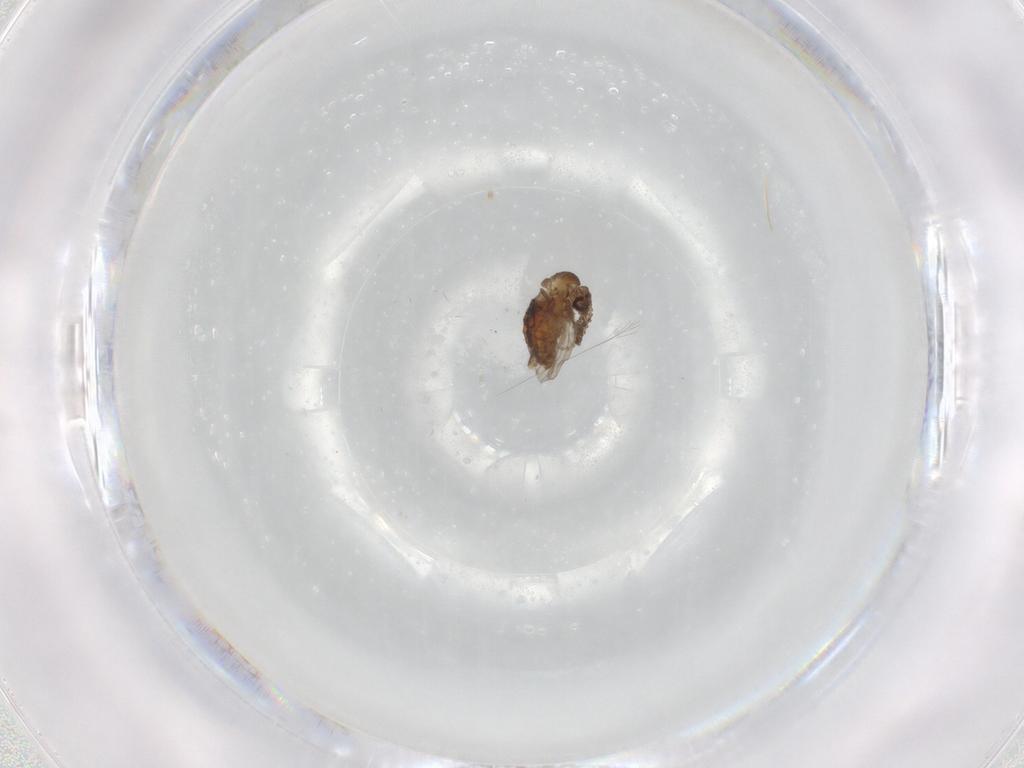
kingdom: Animalia
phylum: Arthropoda
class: Insecta
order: Diptera
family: Psychodidae
